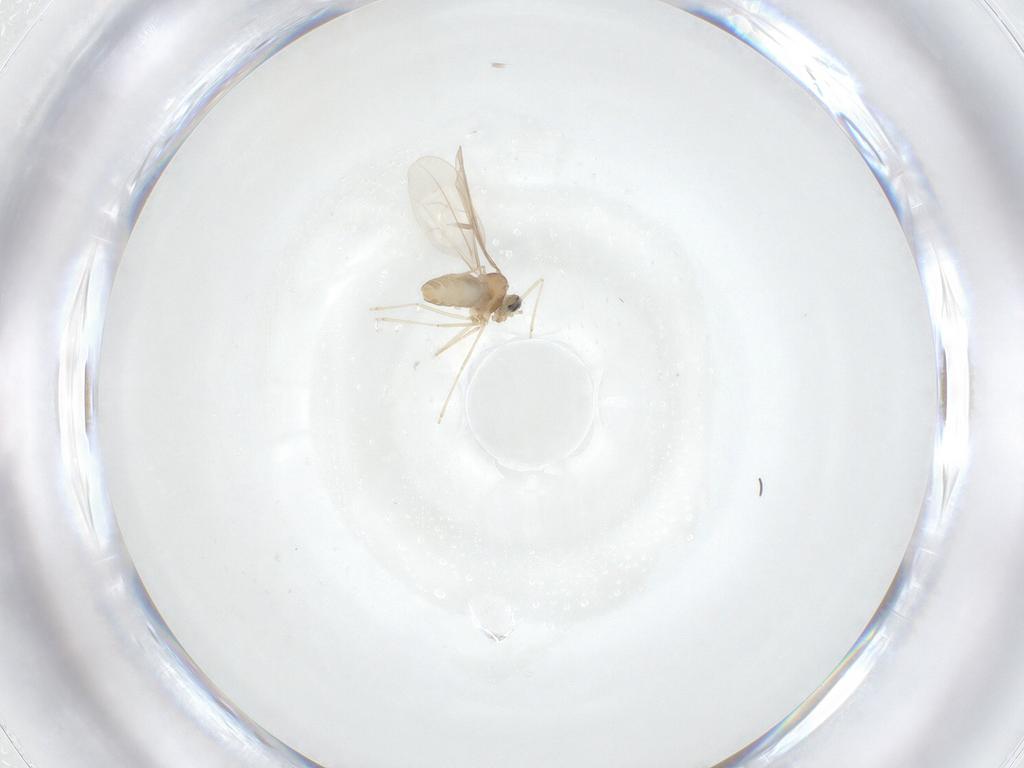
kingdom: Animalia
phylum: Arthropoda
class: Insecta
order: Diptera
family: Cecidomyiidae
